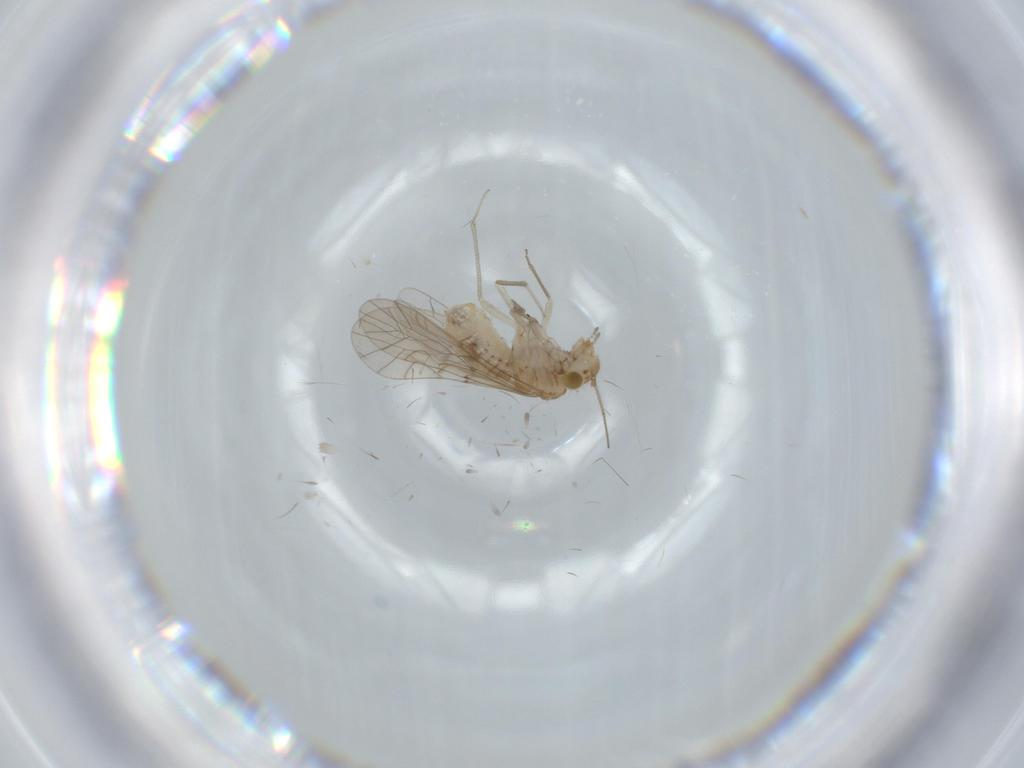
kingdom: Animalia
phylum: Arthropoda
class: Insecta
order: Psocodea
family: Lachesillidae
